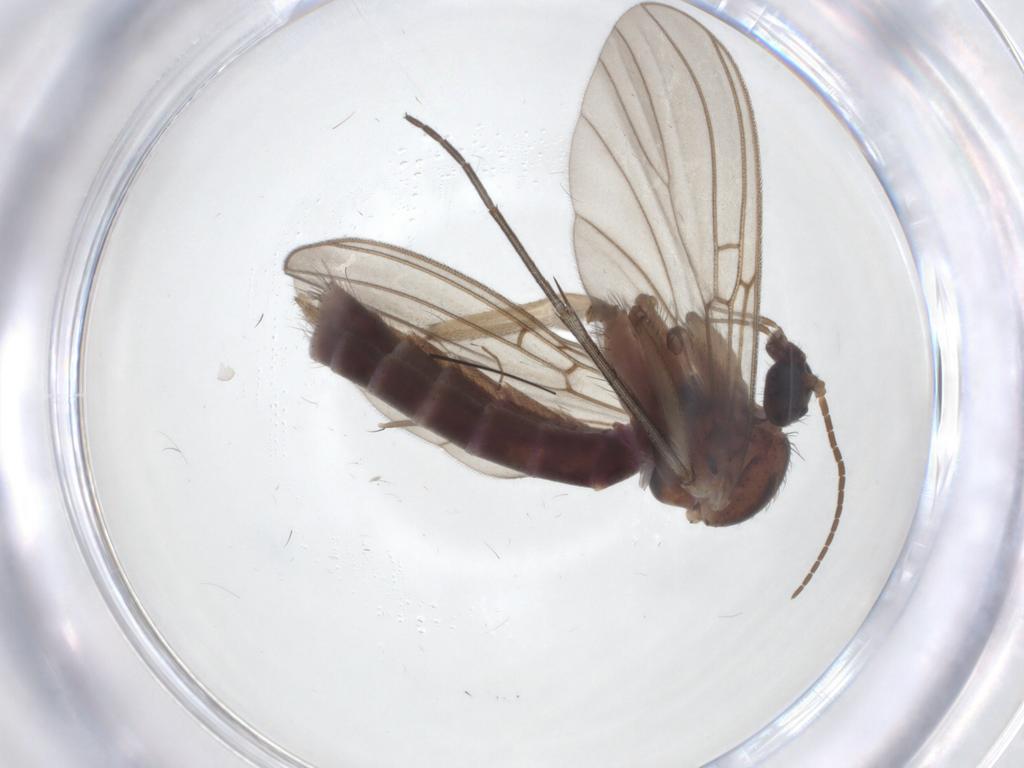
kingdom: Animalia
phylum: Arthropoda
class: Insecta
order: Diptera
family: Mycetophilidae
